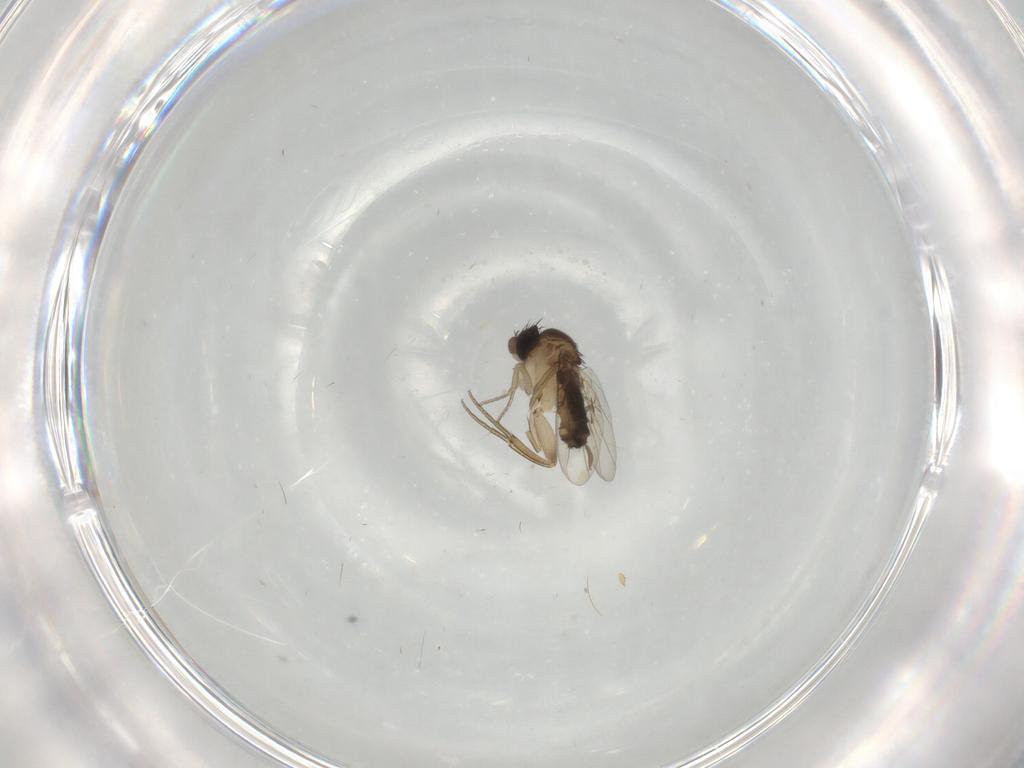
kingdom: Animalia
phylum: Arthropoda
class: Insecta
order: Diptera
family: Cecidomyiidae
